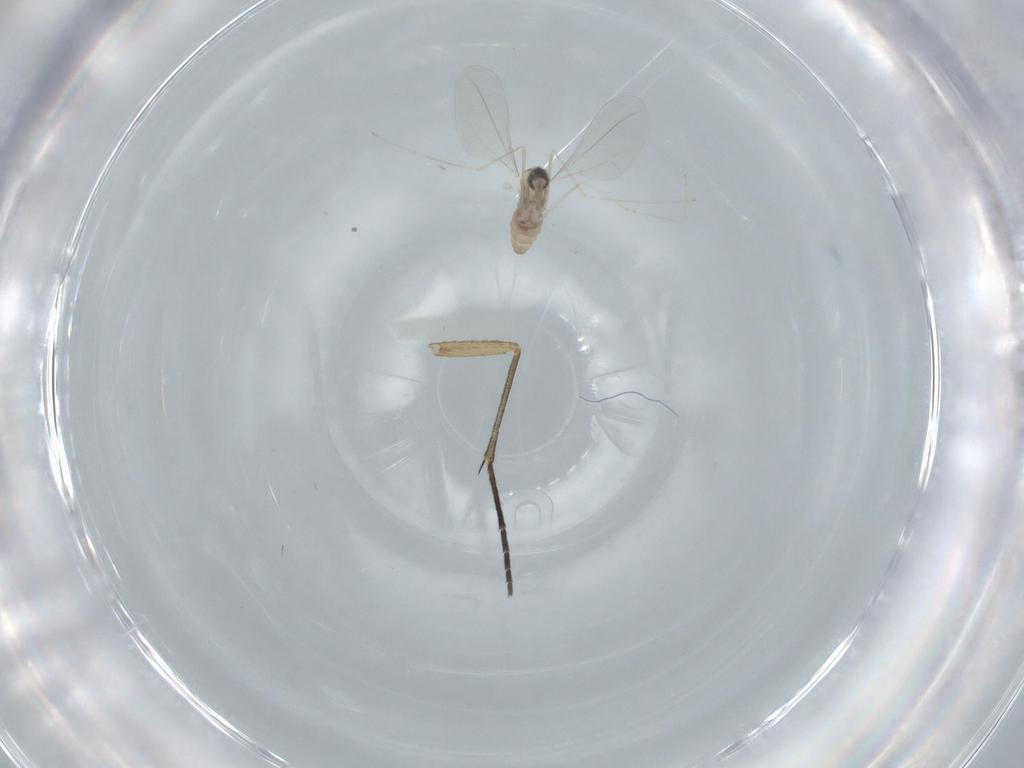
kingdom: Animalia
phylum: Arthropoda
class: Insecta
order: Diptera
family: Cecidomyiidae
